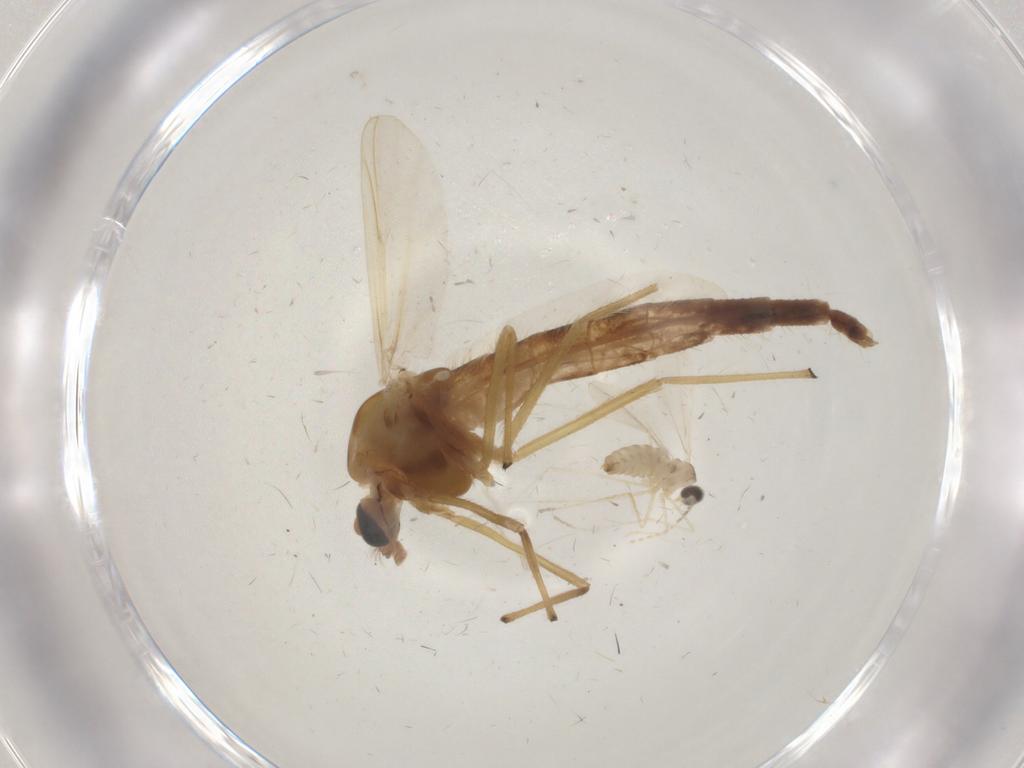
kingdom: Animalia
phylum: Arthropoda
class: Insecta
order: Diptera
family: Chironomidae
